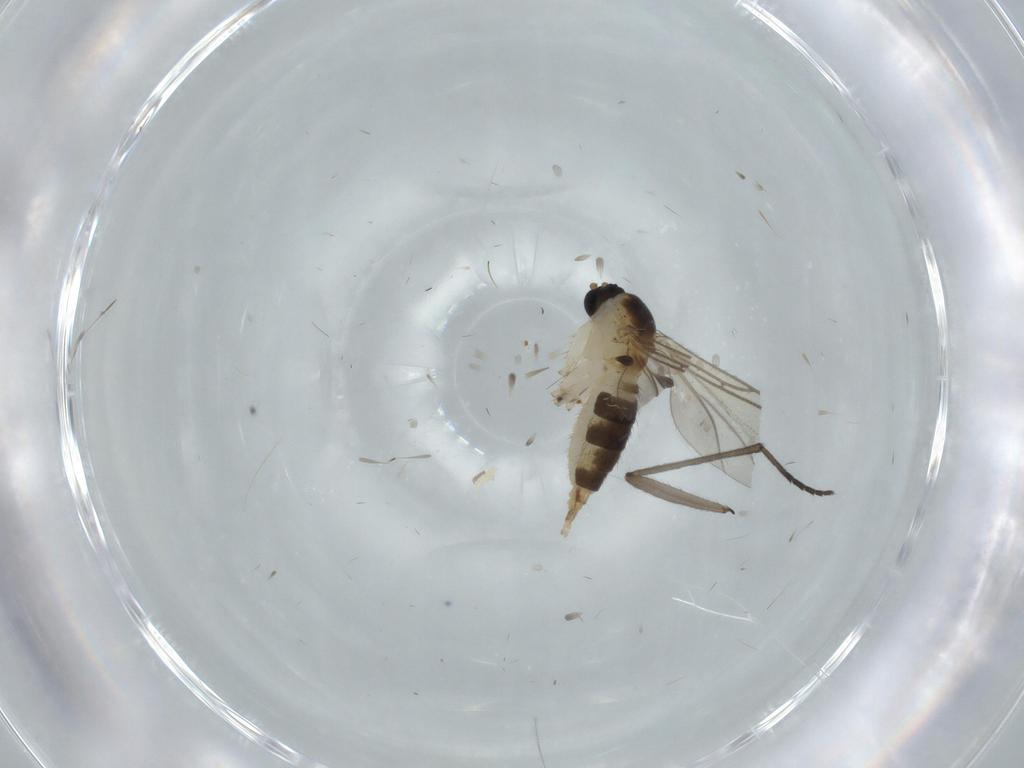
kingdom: Animalia
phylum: Arthropoda
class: Insecta
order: Diptera
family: Sciaridae
